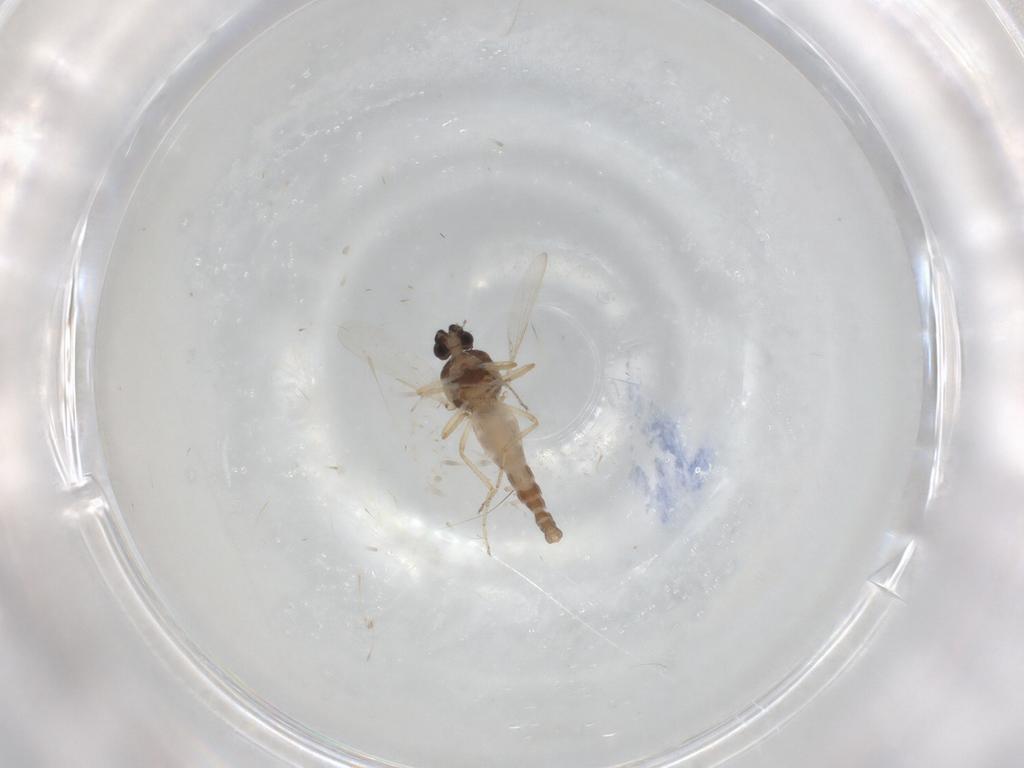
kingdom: Animalia
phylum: Arthropoda
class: Insecta
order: Diptera
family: Ceratopogonidae
